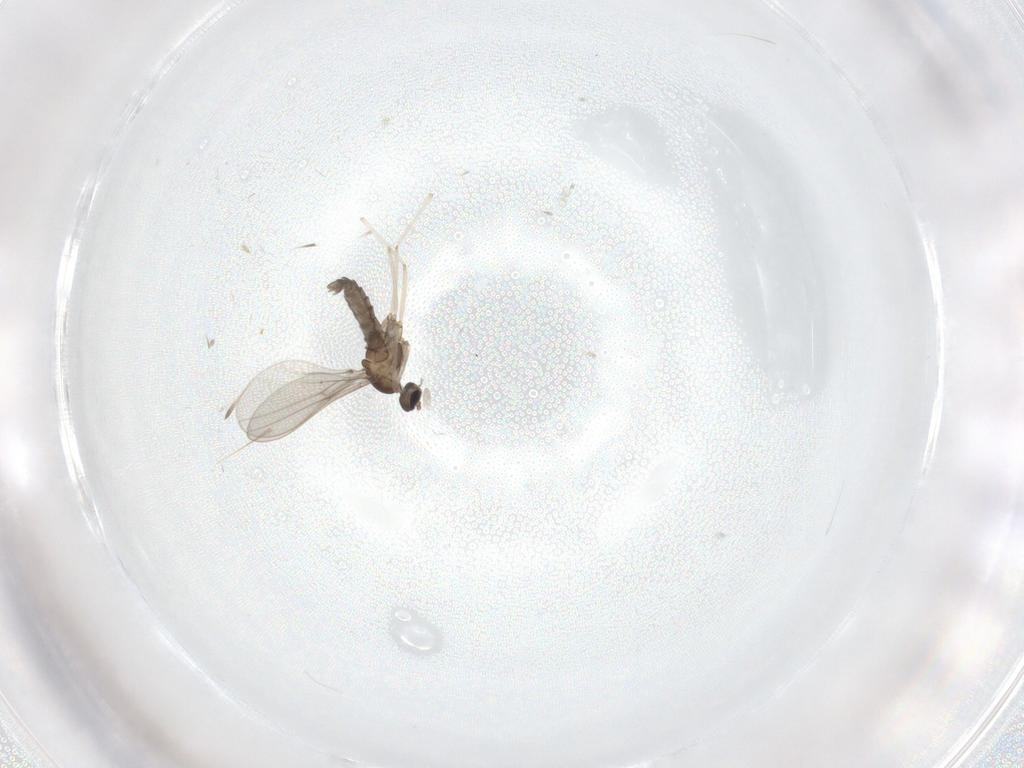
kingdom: Animalia
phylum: Arthropoda
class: Insecta
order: Diptera
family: Cecidomyiidae
